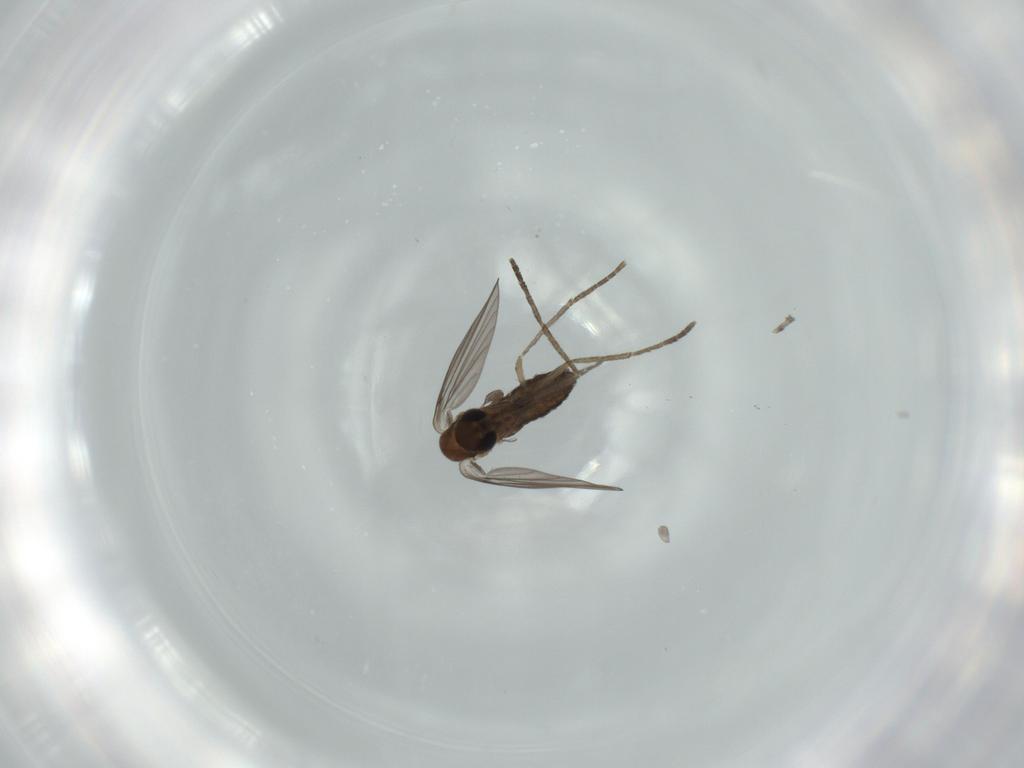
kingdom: Animalia
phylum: Arthropoda
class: Insecta
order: Diptera
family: Psychodidae
